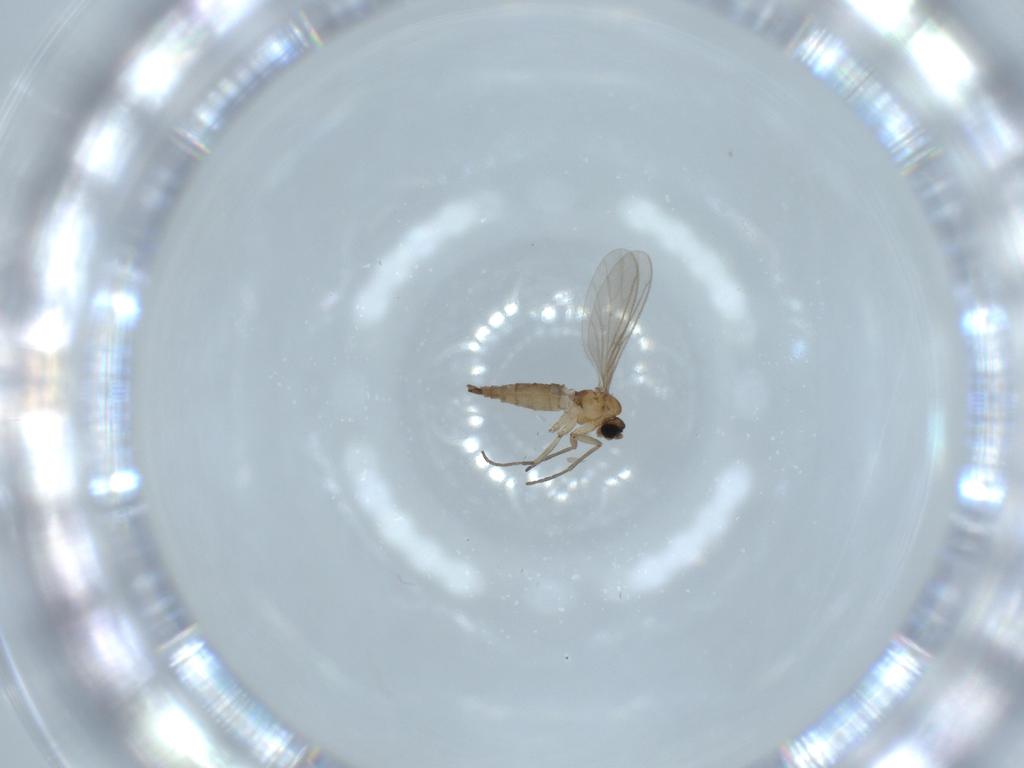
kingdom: Animalia
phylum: Arthropoda
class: Insecta
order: Diptera
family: Sciaridae
